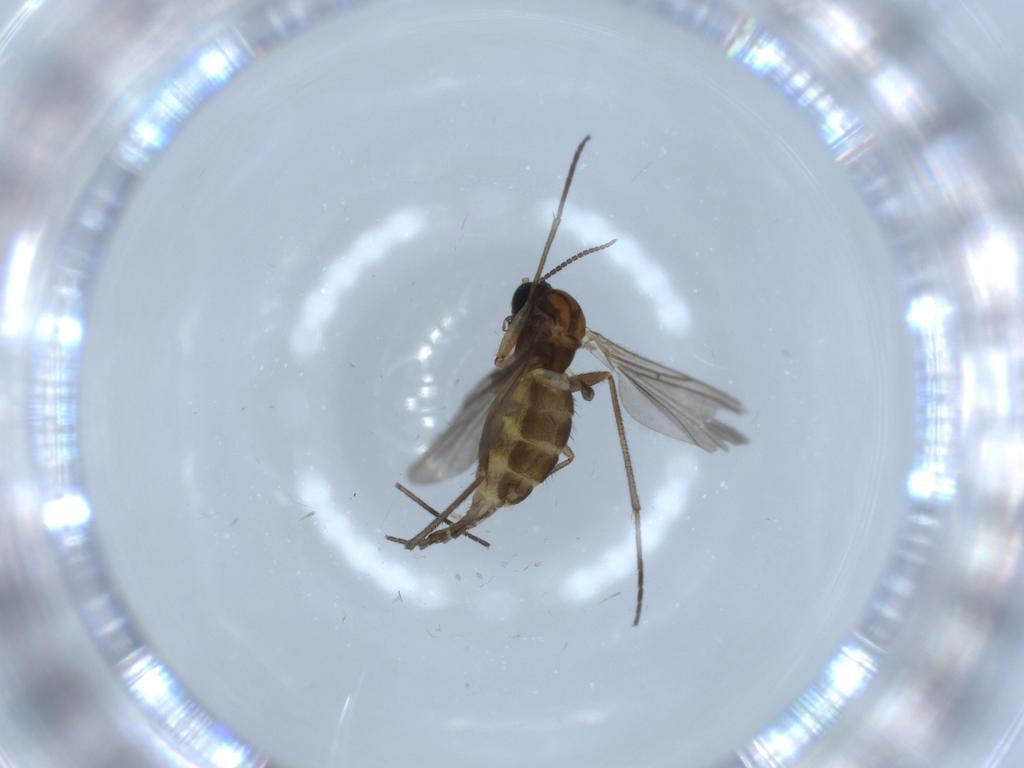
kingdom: Animalia
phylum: Arthropoda
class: Insecta
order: Diptera
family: Sciaridae
